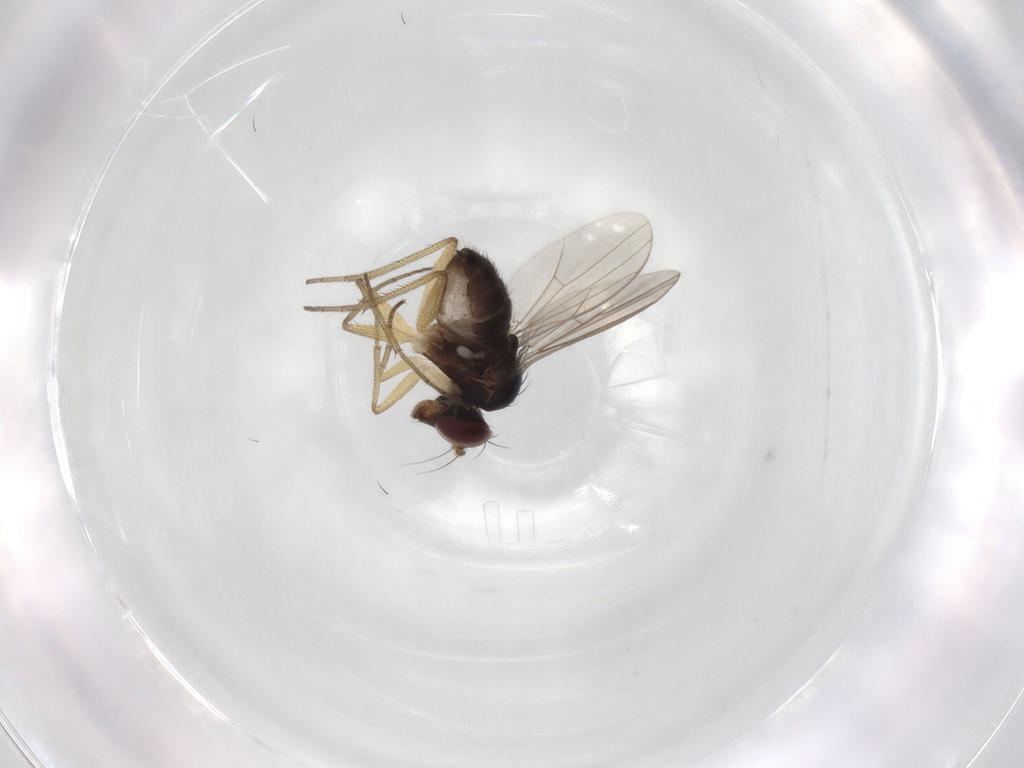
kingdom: Animalia
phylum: Arthropoda
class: Insecta
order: Diptera
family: Dolichopodidae
